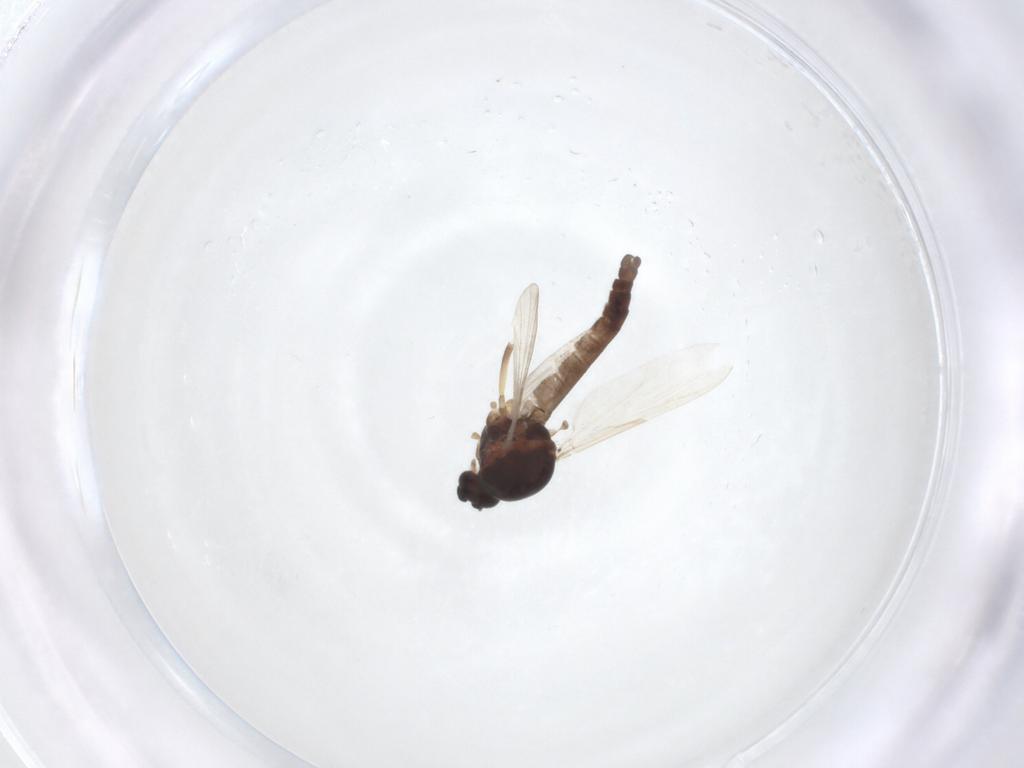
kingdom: Animalia
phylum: Arthropoda
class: Insecta
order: Diptera
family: Ceratopogonidae
